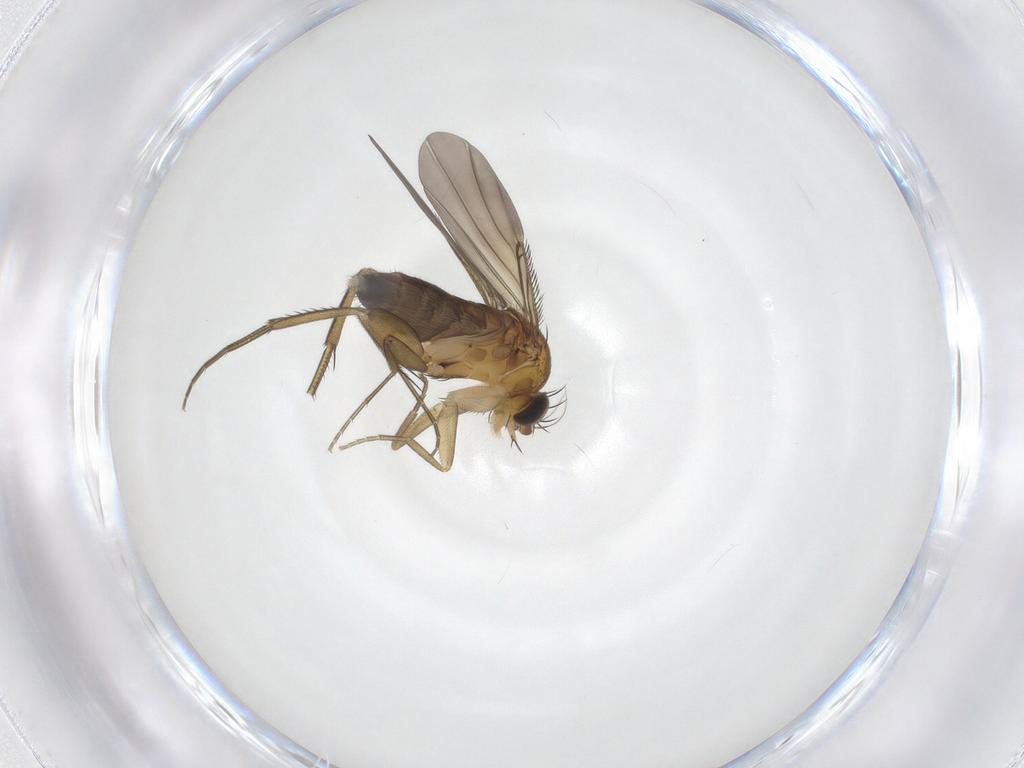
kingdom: Animalia
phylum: Arthropoda
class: Insecta
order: Diptera
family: Phoridae
